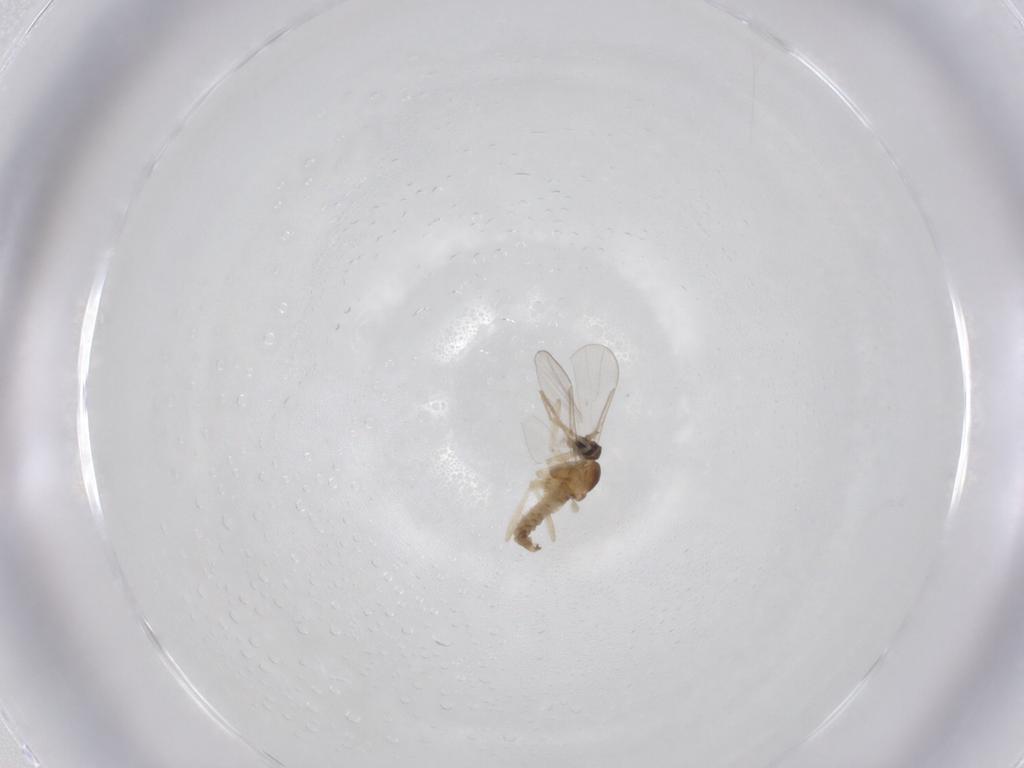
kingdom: Animalia
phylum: Arthropoda
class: Insecta
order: Diptera
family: Cecidomyiidae
